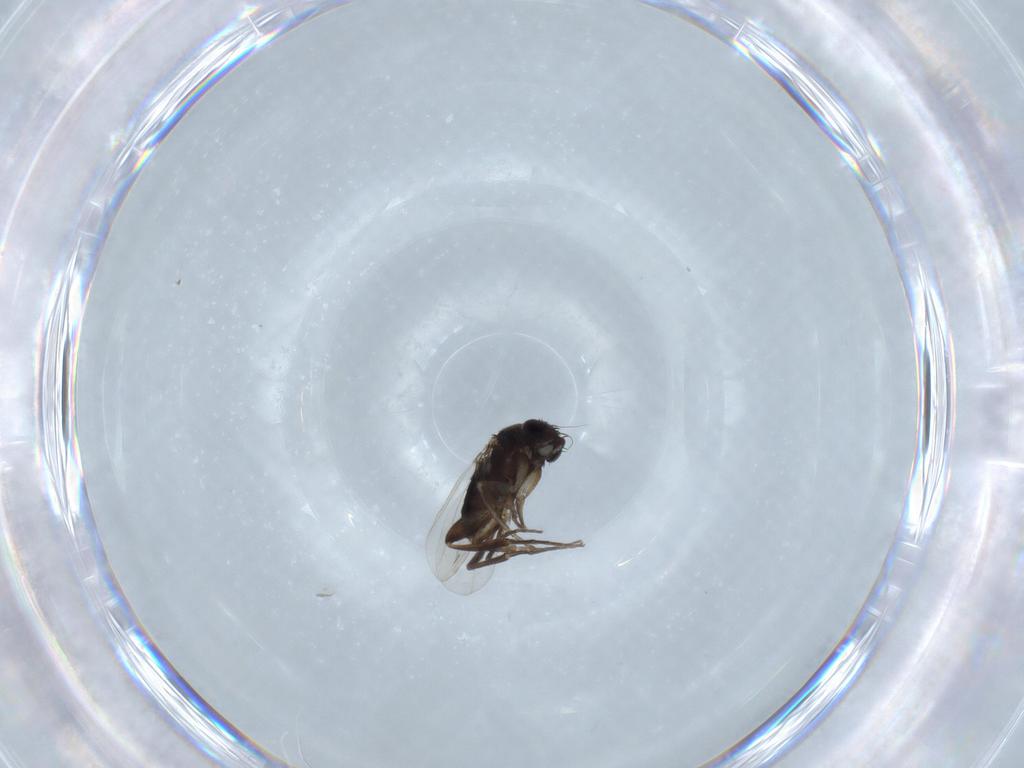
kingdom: Animalia
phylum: Arthropoda
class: Insecta
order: Diptera
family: Phoridae
